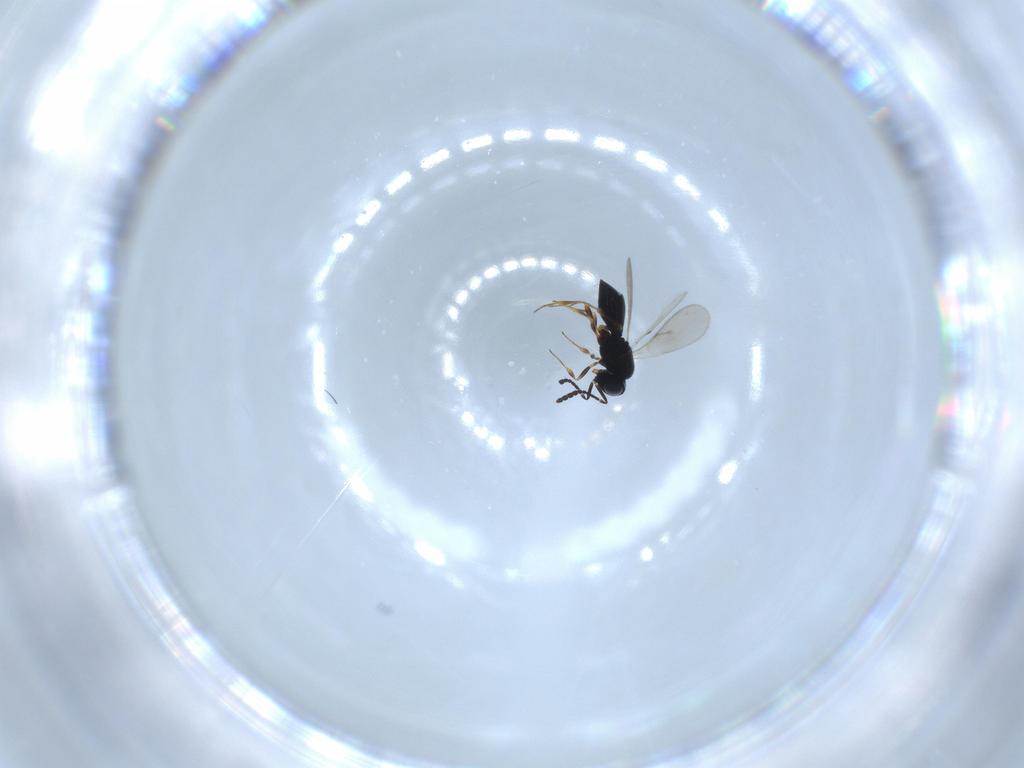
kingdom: Animalia
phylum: Arthropoda
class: Insecta
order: Hymenoptera
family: Scelionidae
